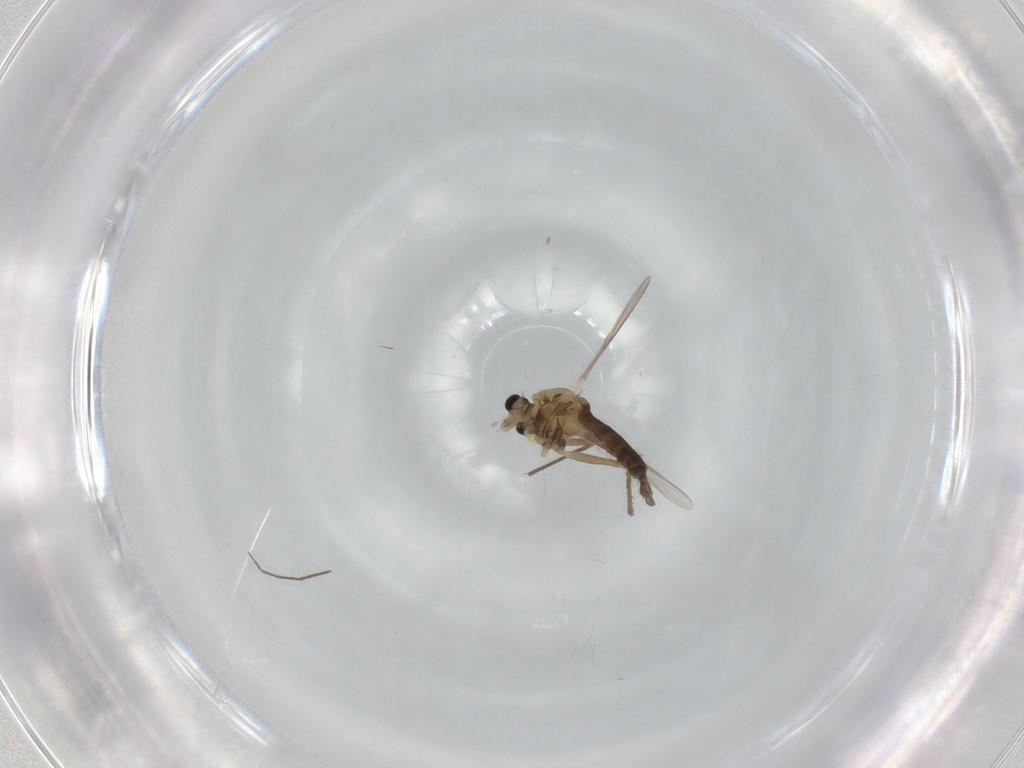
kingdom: Animalia
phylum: Arthropoda
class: Insecta
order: Diptera
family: Chironomidae
